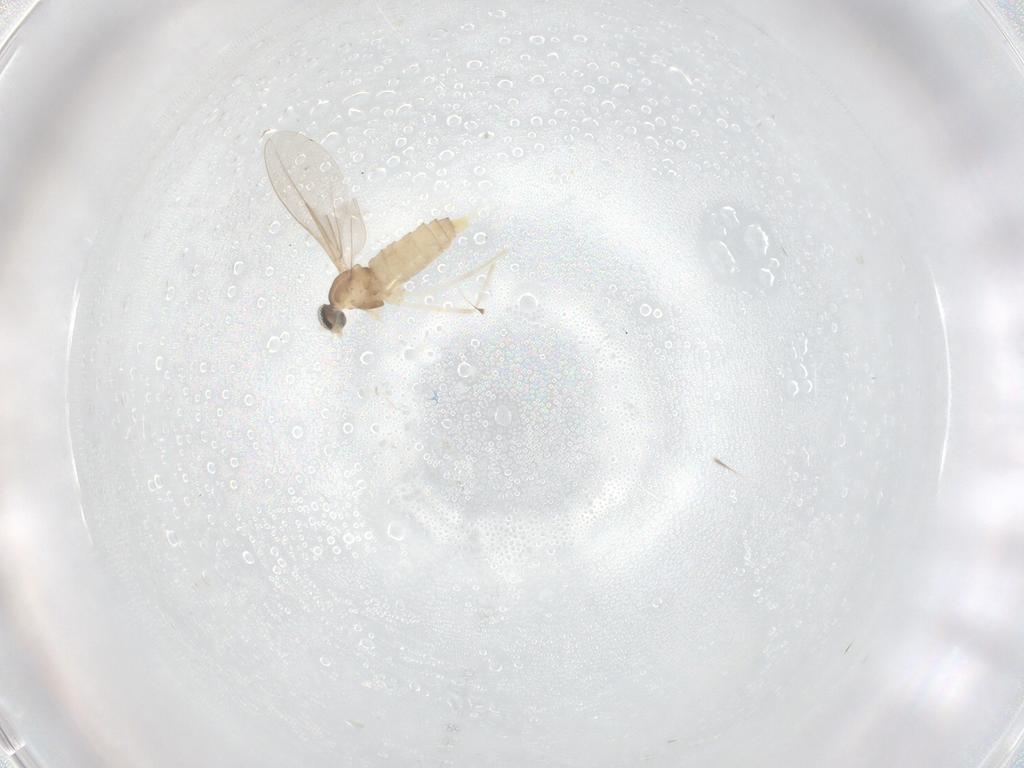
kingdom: Animalia
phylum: Arthropoda
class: Insecta
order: Diptera
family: Cecidomyiidae
